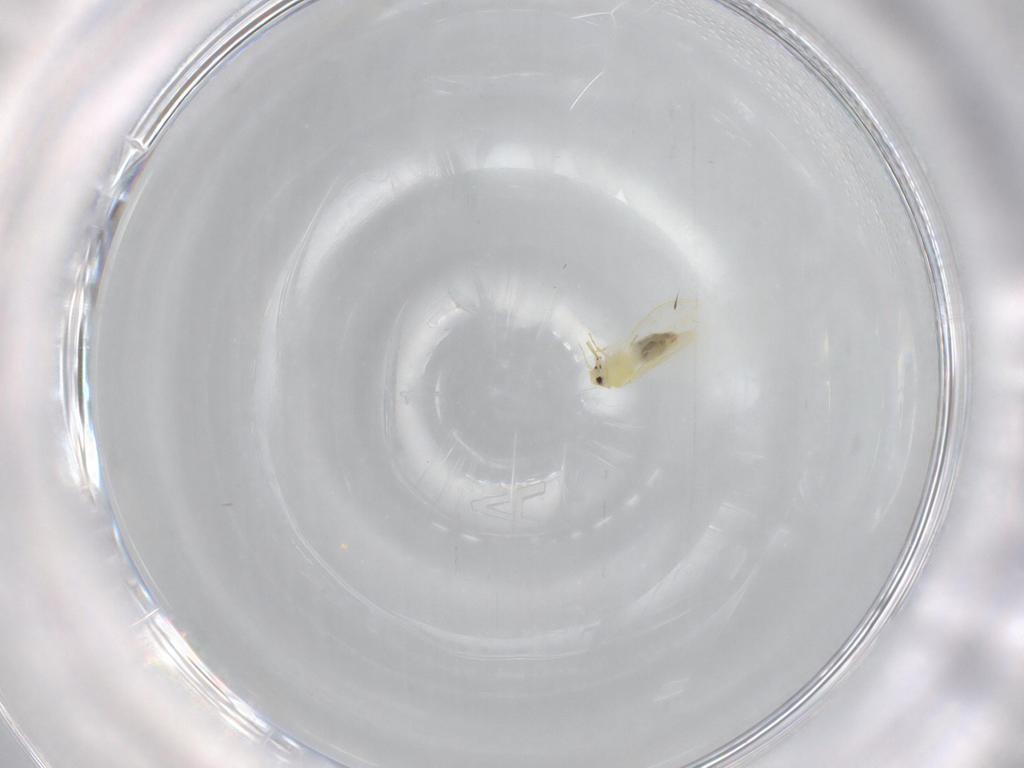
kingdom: Animalia
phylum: Arthropoda
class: Insecta
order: Hemiptera
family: Aleyrodidae
